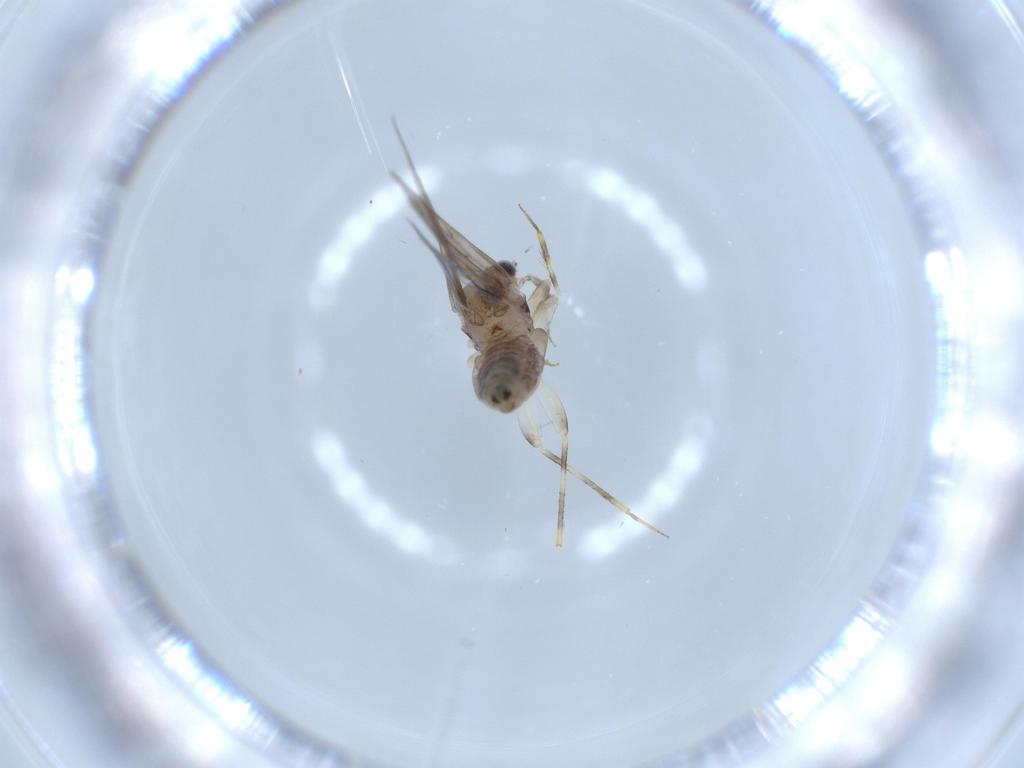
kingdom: Animalia
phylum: Arthropoda
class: Insecta
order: Psocodea
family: Lepidopsocidae
